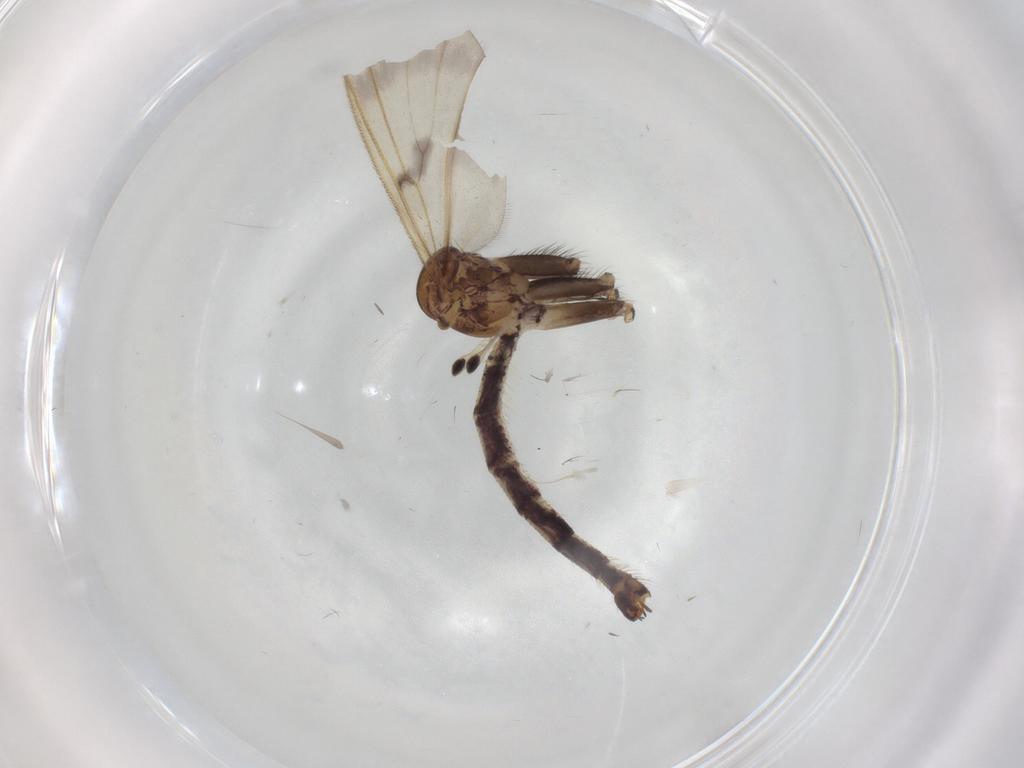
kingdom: Animalia
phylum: Arthropoda
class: Insecta
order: Diptera
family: Mycetophilidae
